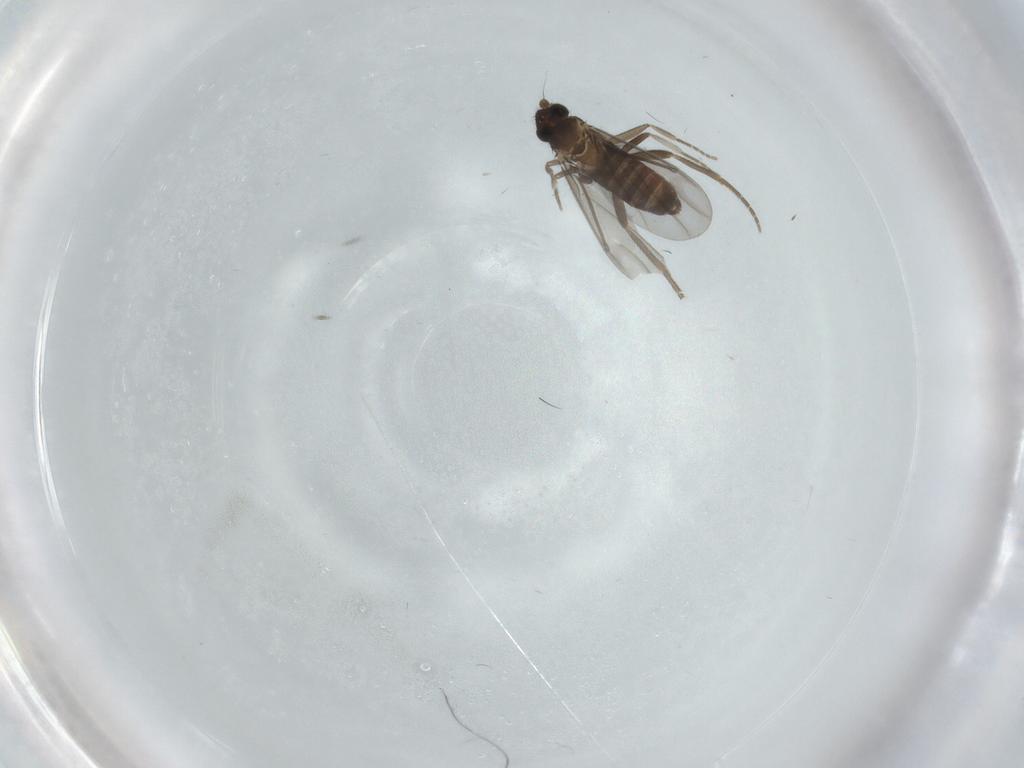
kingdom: Animalia
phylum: Arthropoda
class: Insecta
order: Diptera
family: Phoridae
